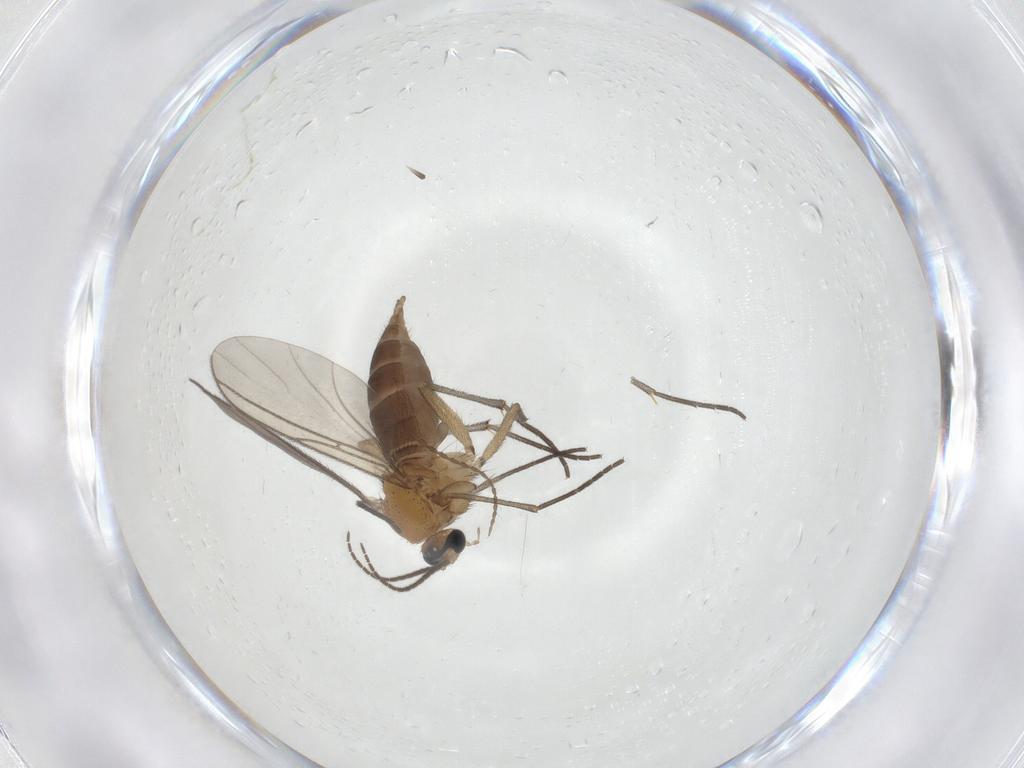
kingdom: Animalia
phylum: Arthropoda
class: Insecta
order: Diptera
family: Sciaridae
